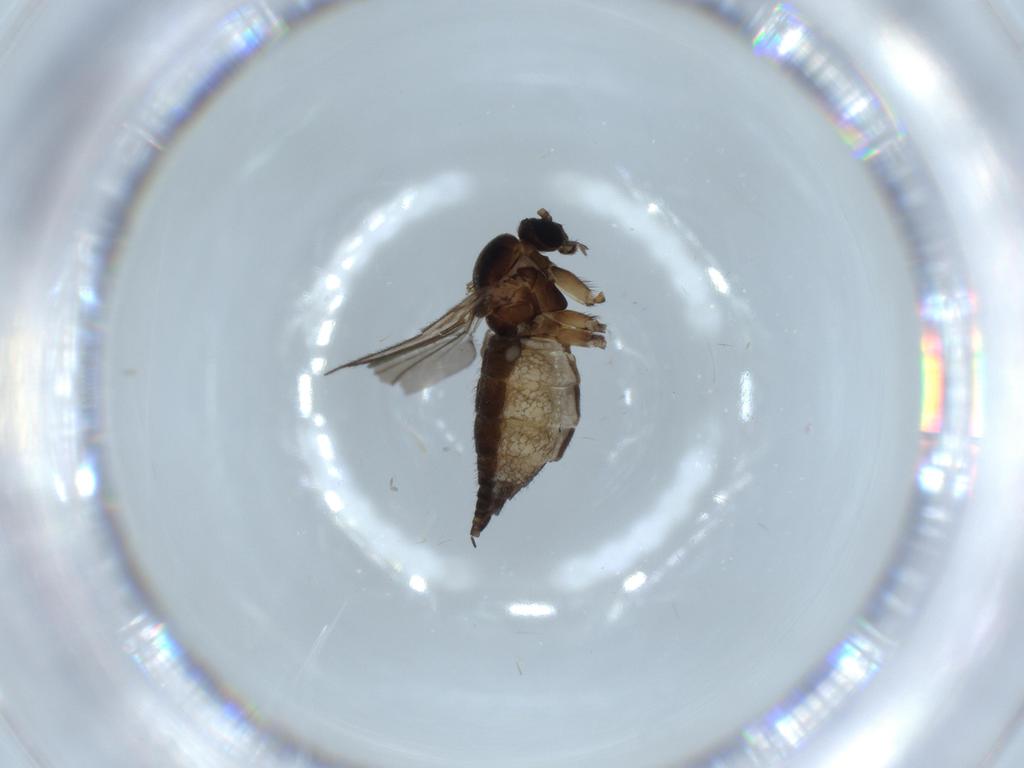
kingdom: Animalia
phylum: Arthropoda
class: Insecta
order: Diptera
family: Sciaridae
